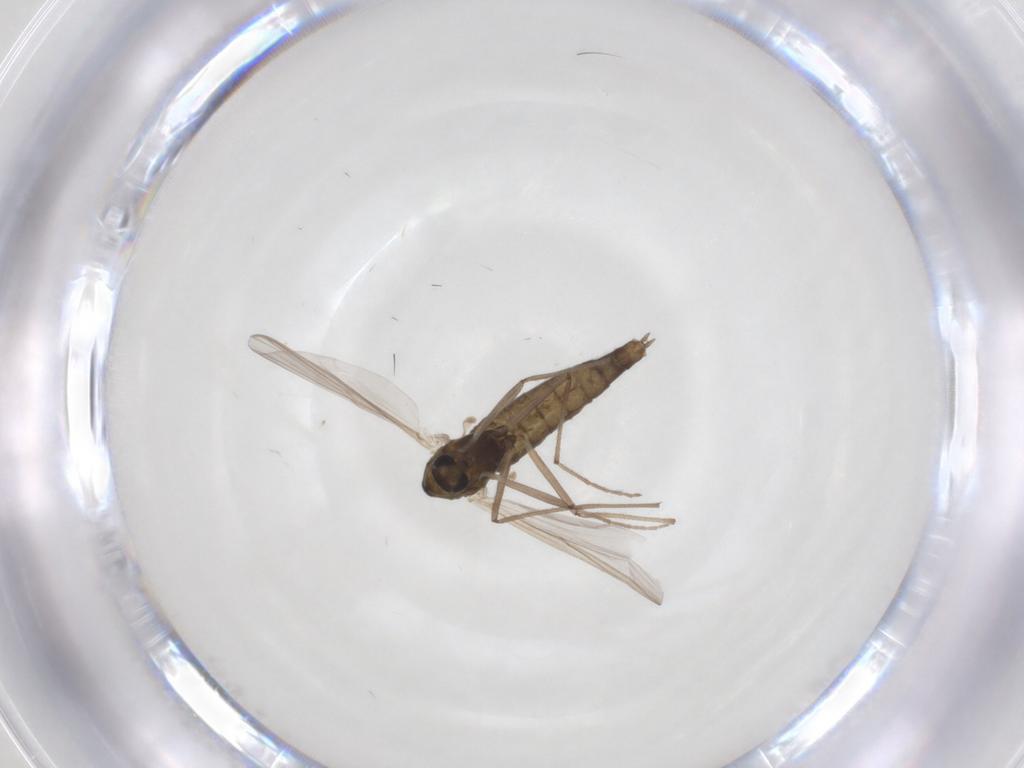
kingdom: Animalia
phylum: Arthropoda
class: Insecta
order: Diptera
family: Chironomidae
